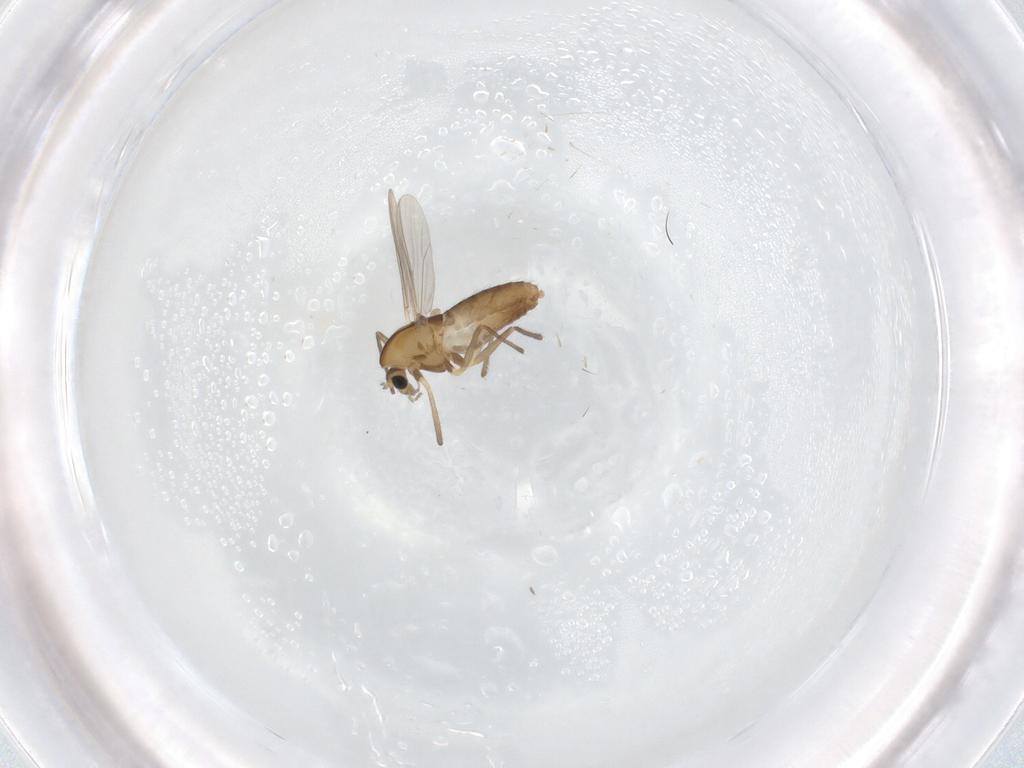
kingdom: Animalia
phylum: Arthropoda
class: Insecta
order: Diptera
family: Chironomidae
